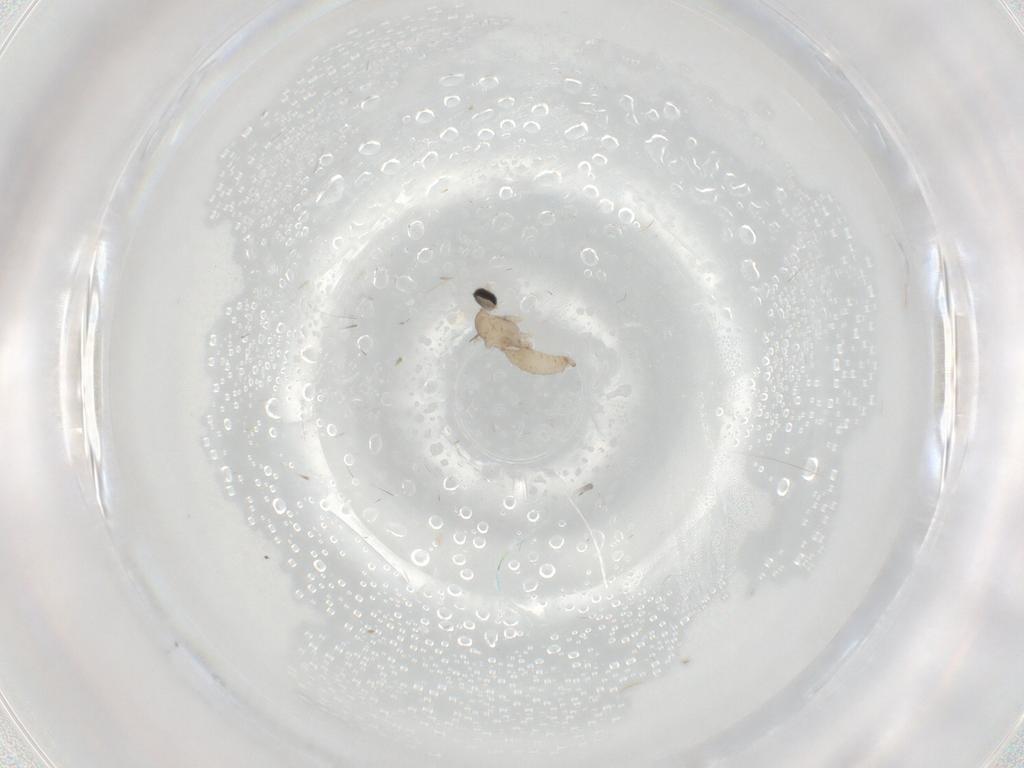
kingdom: Animalia
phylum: Arthropoda
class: Insecta
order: Diptera
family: Cecidomyiidae
